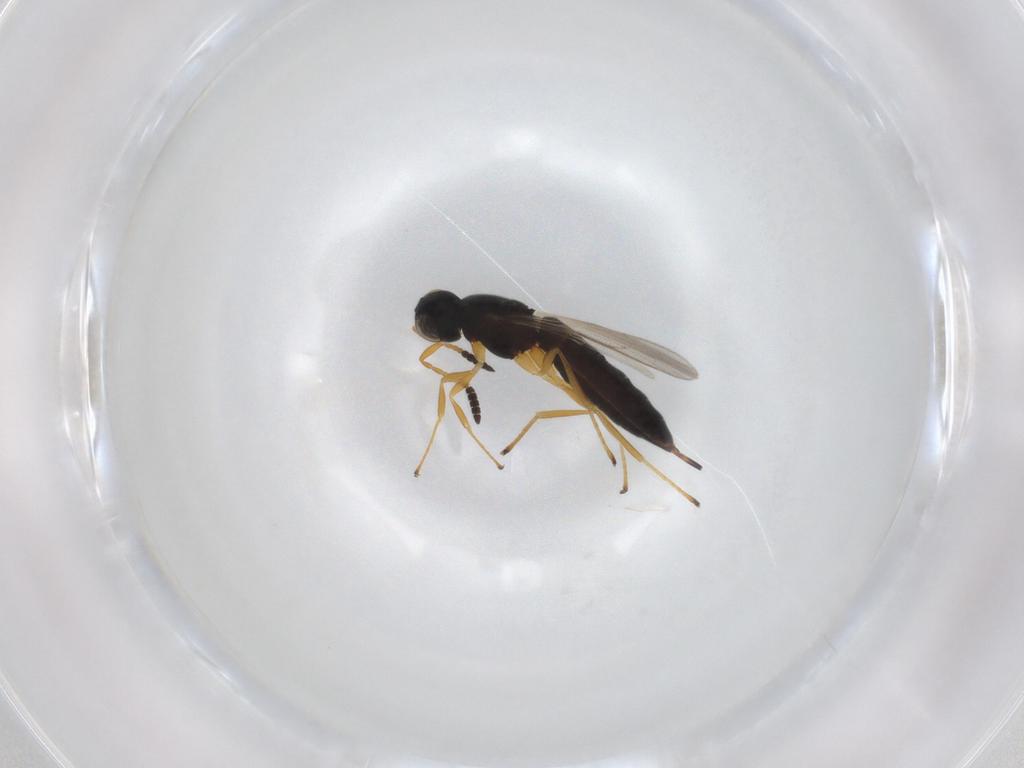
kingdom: Animalia
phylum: Arthropoda
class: Insecta
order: Hymenoptera
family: Scelionidae
